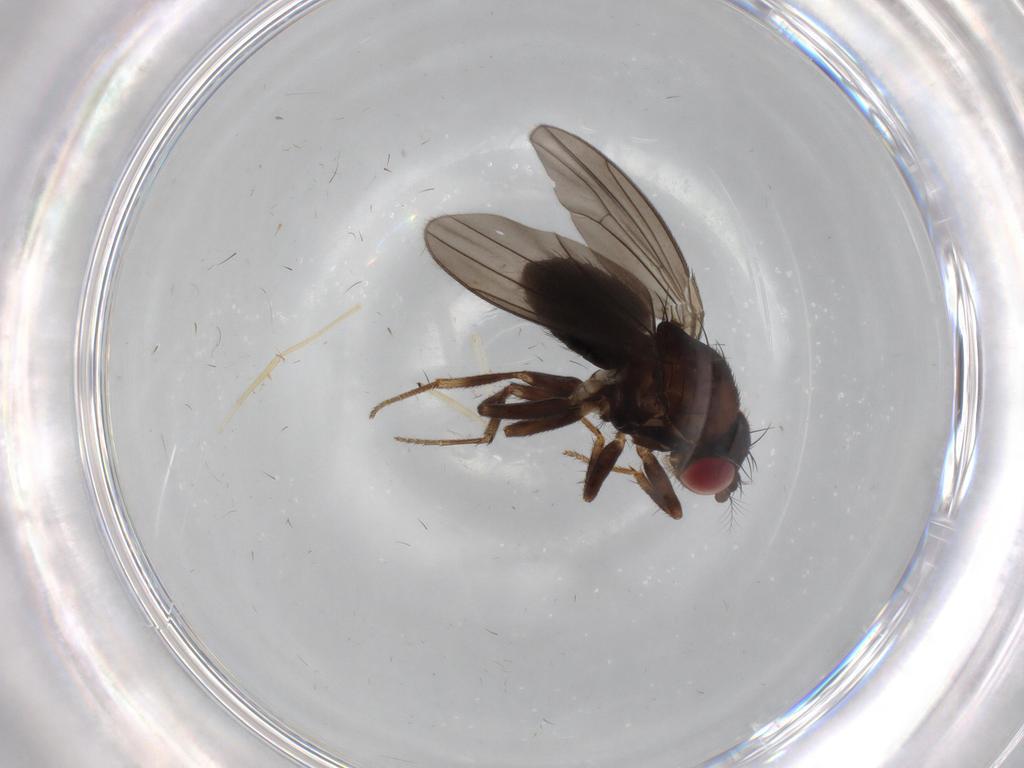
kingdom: Animalia
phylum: Arthropoda
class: Insecta
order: Diptera
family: Drosophilidae
